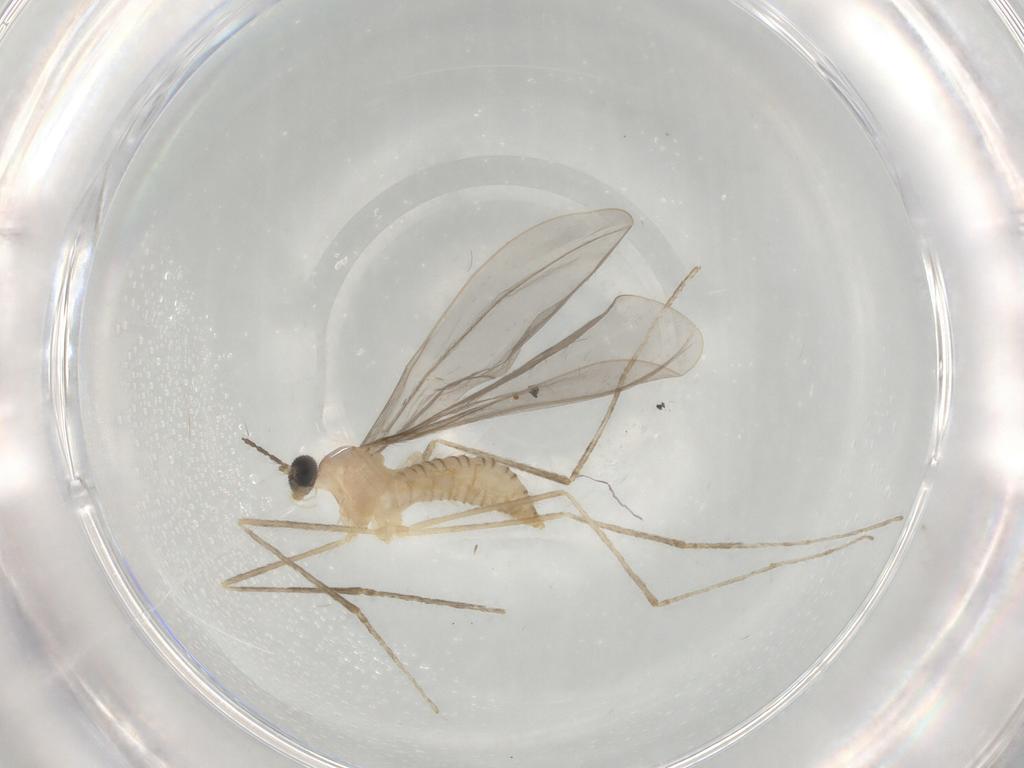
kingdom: Animalia
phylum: Arthropoda
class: Insecta
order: Diptera
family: Cecidomyiidae
